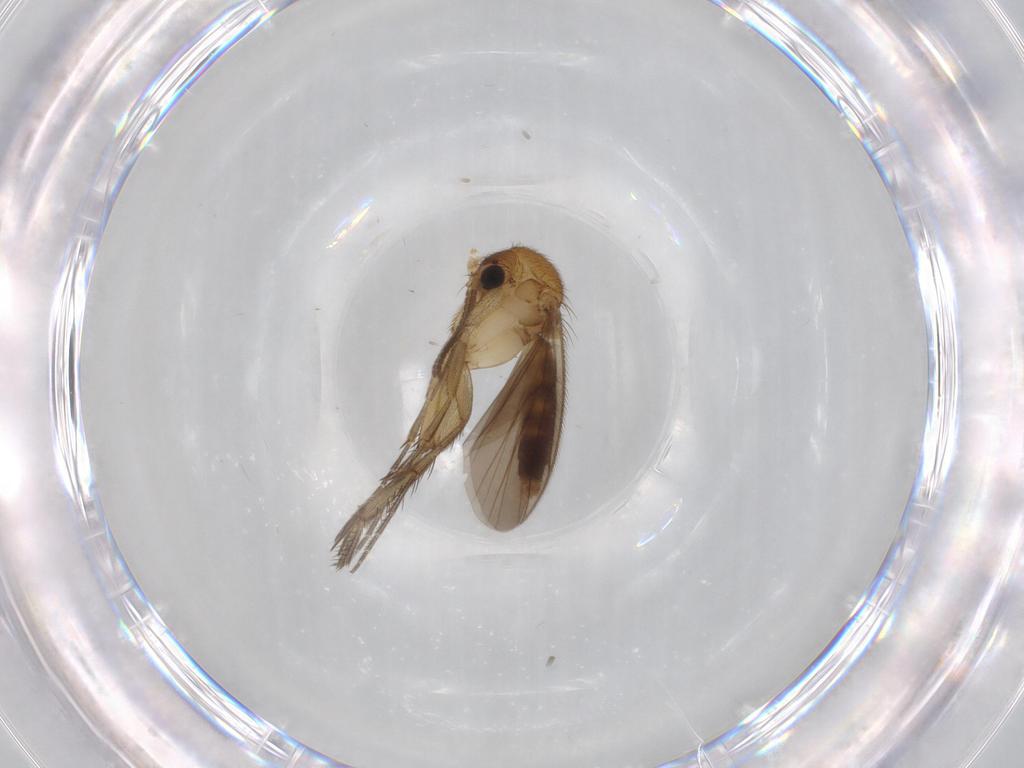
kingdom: Animalia
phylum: Arthropoda
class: Insecta
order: Diptera
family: Mycetophilidae
